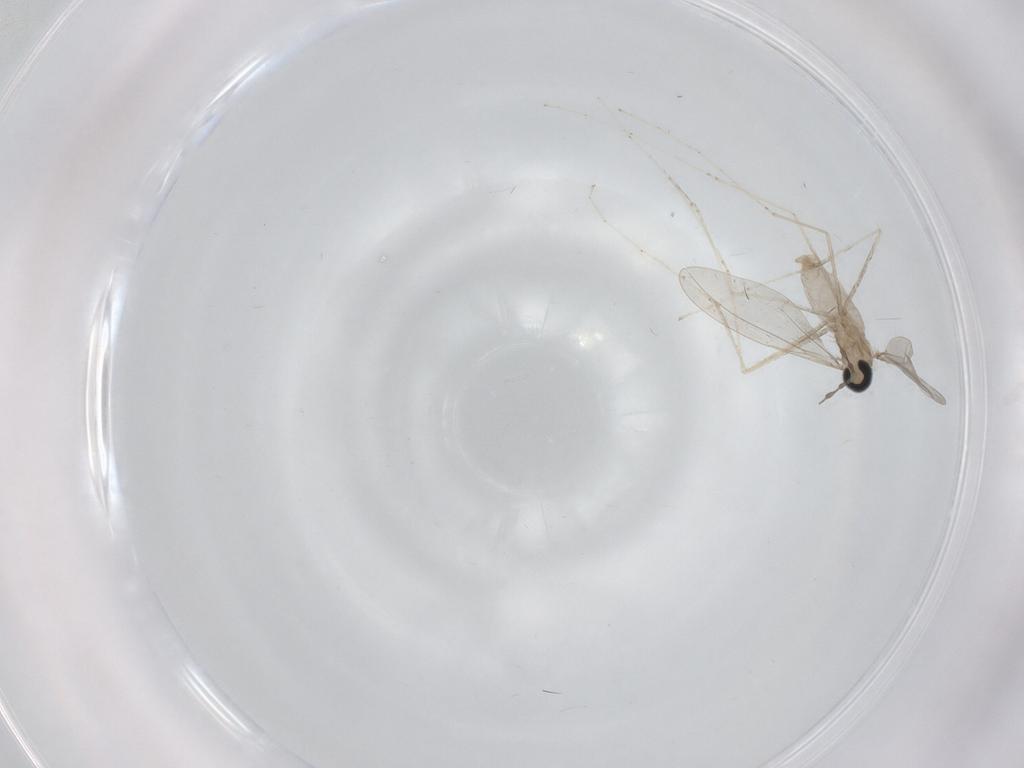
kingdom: Animalia
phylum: Arthropoda
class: Insecta
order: Diptera
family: Cecidomyiidae
